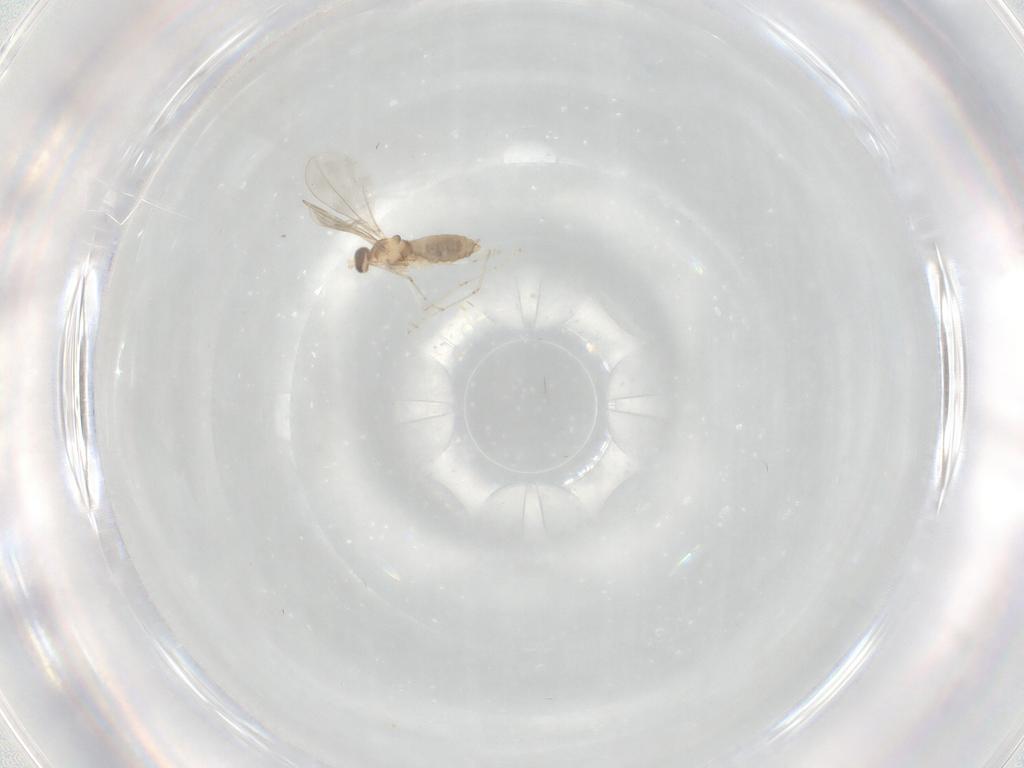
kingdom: Animalia
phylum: Arthropoda
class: Insecta
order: Diptera
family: Cecidomyiidae
